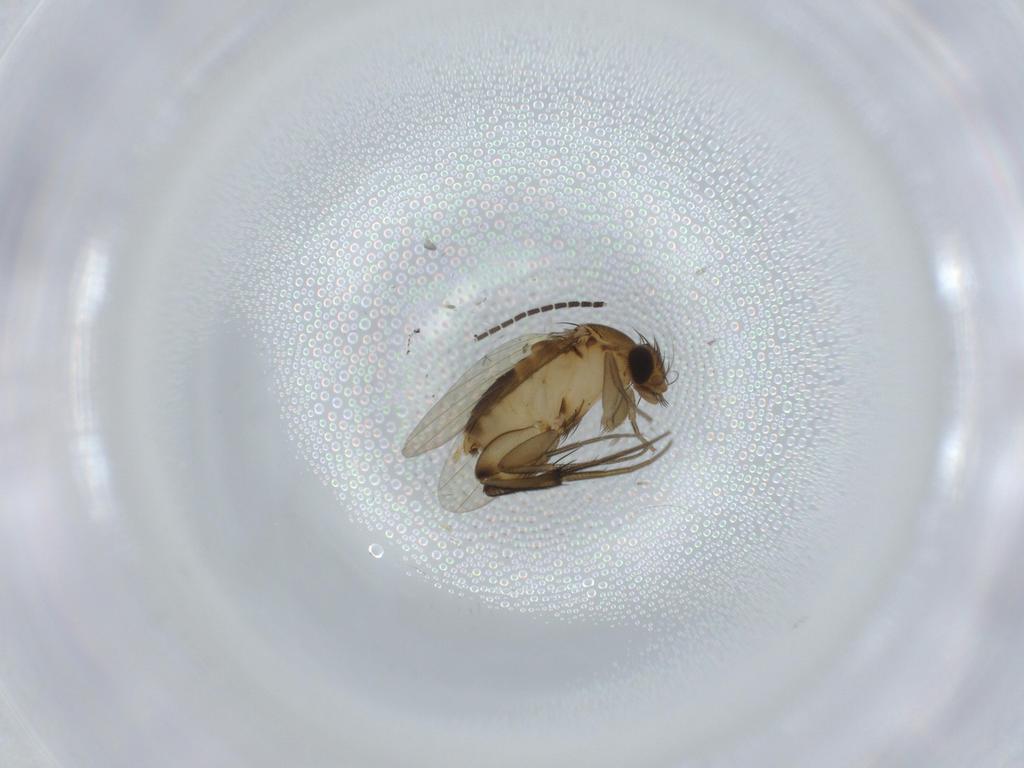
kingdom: Animalia
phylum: Arthropoda
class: Insecta
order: Diptera
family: Phoridae
